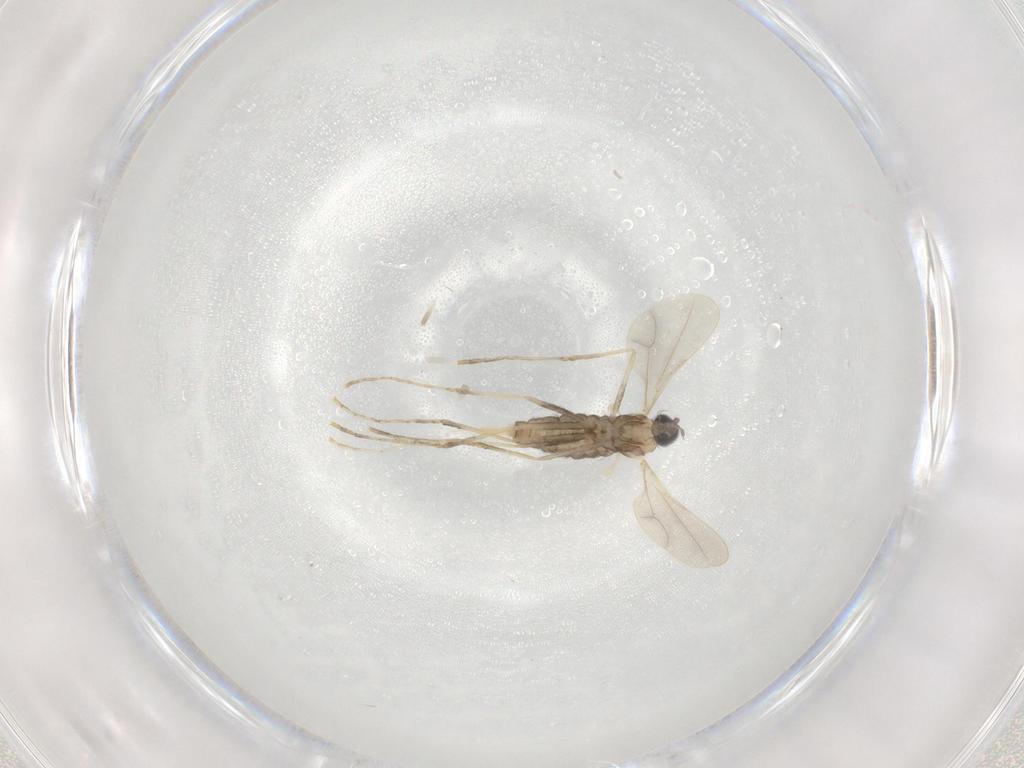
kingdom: Animalia
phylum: Arthropoda
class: Insecta
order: Diptera
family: Cecidomyiidae
